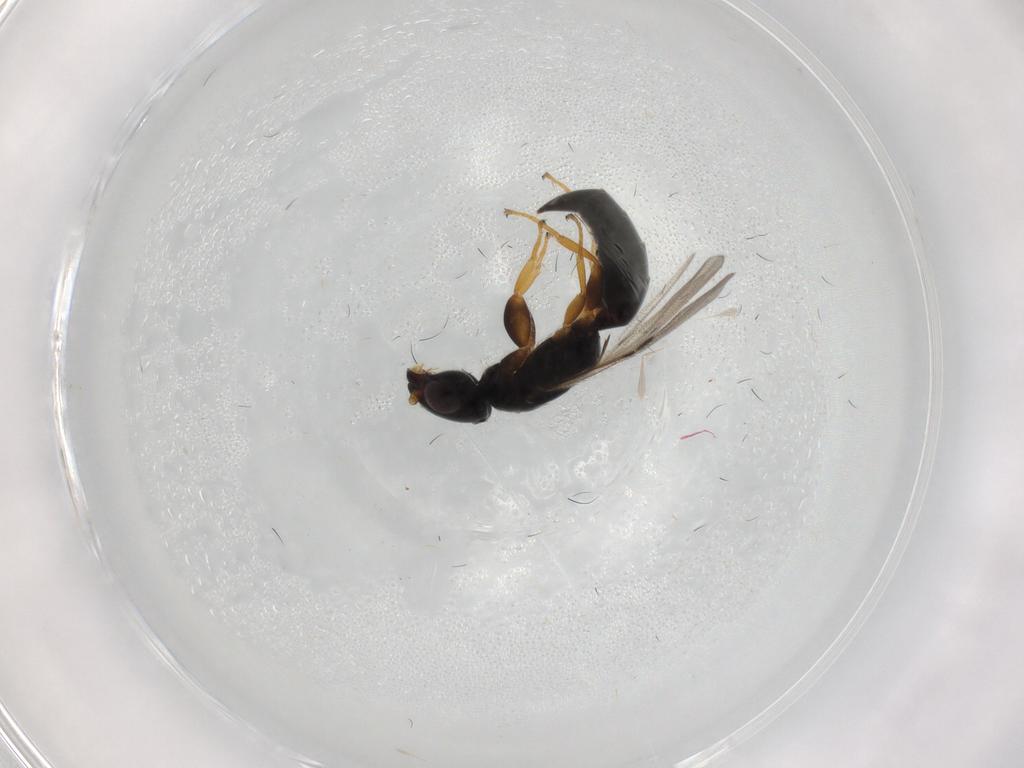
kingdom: Animalia
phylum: Arthropoda
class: Insecta
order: Hymenoptera
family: Bethylidae
